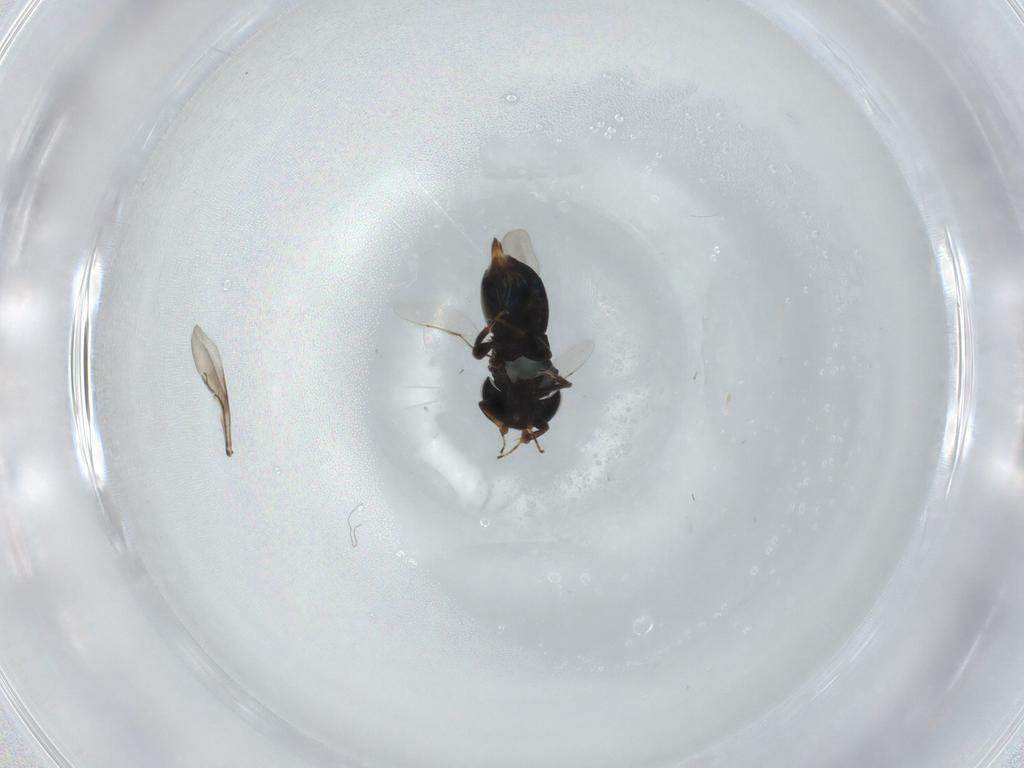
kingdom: Animalia
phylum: Arthropoda
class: Insecta
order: Hymenoptera
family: Encyrtidae
